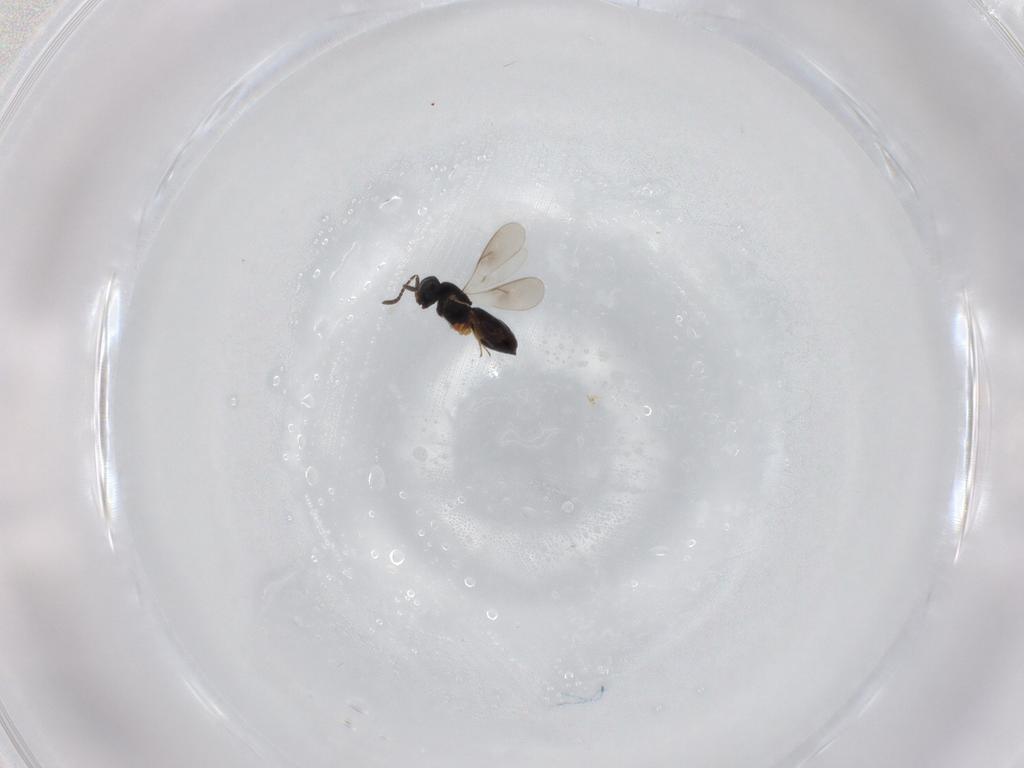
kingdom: Animalia
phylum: Arthropoda
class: Insecta
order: Hymenoptera
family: Scelionidae
